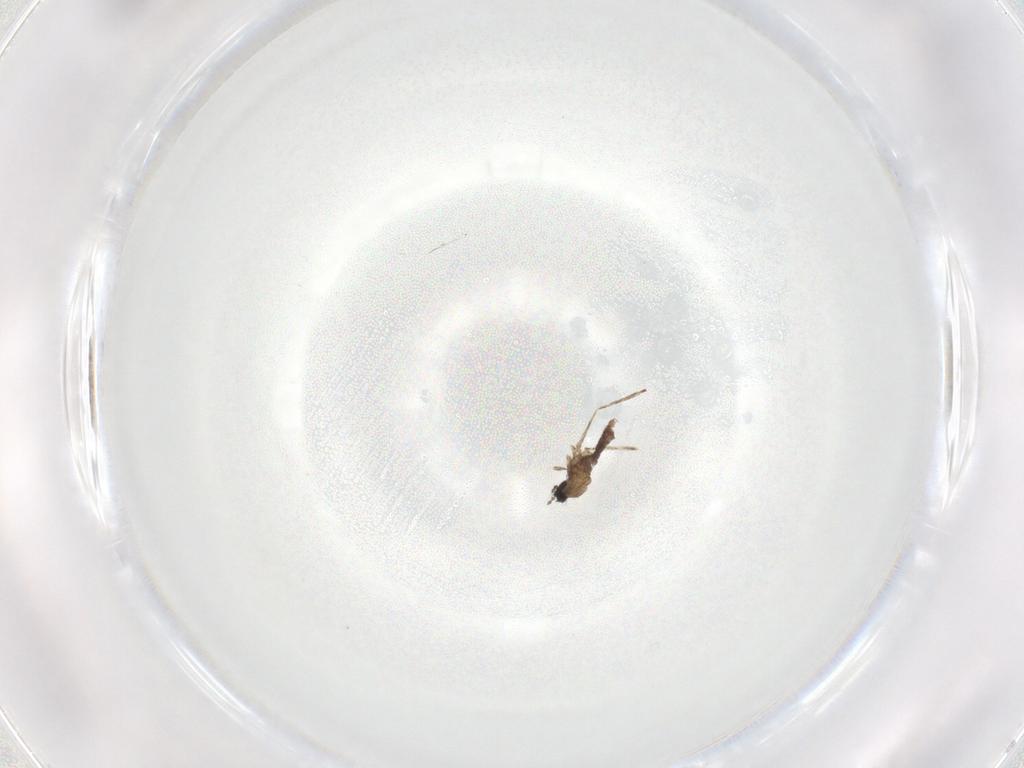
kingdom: Animalia
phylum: Arthropoda
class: Insecta
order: Diptera
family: Cecidomyiidae
